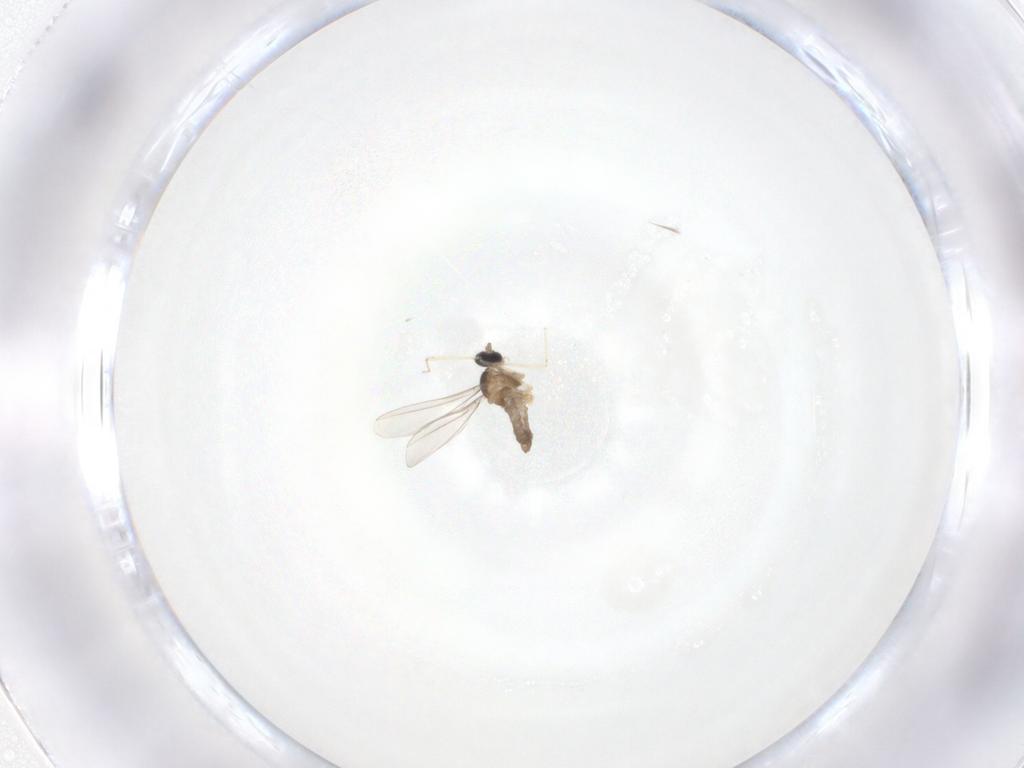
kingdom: Animalia
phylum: Arthropoda
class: Insecta
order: Diptera
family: Cecidomyiidae
